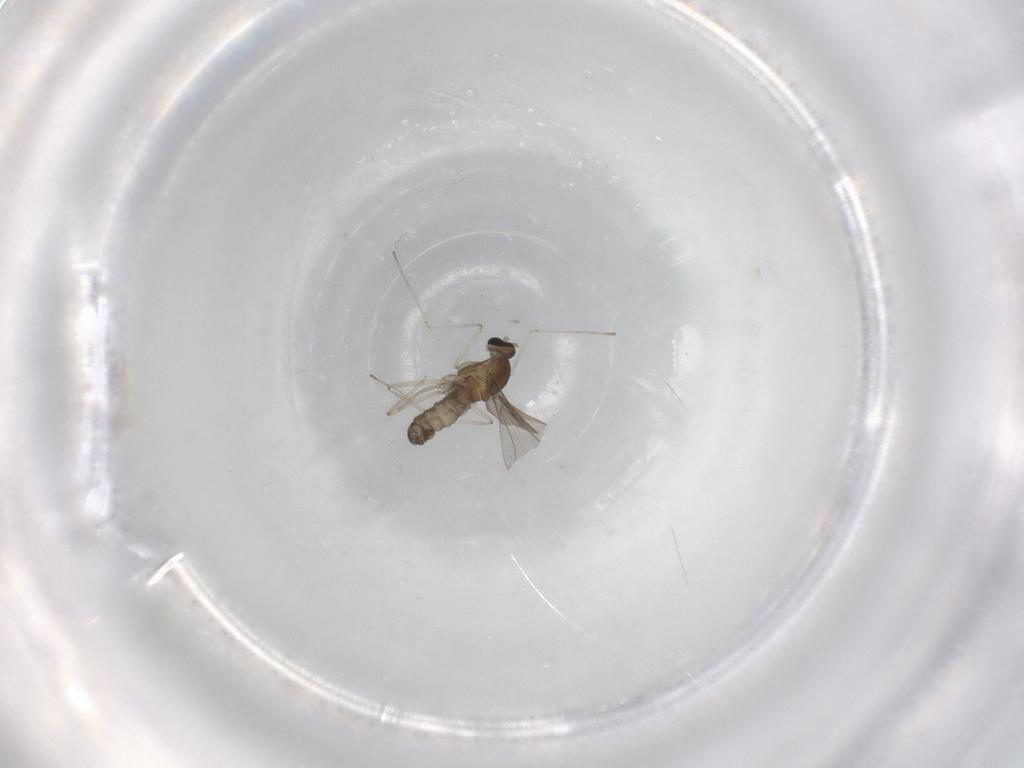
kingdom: Animalia
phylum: Arthropoda
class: Insecta
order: Diptera
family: Cecidomyiidae
